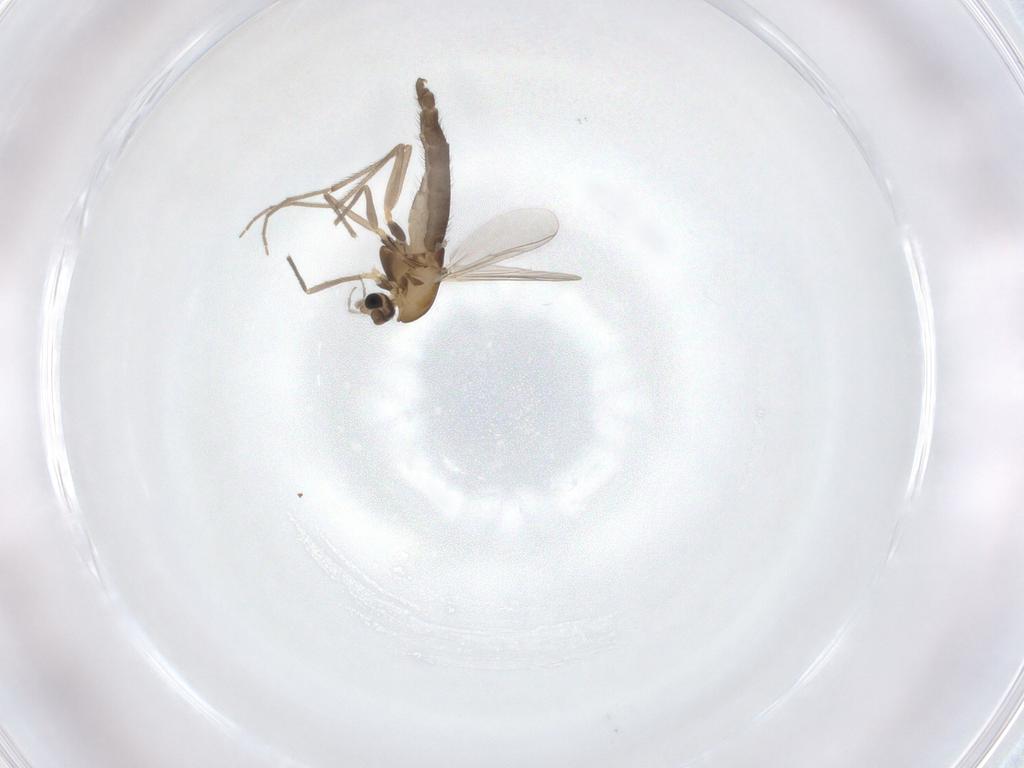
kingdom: Animalia
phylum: Arthropoda
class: Insecta
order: Diptera
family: Chironomidae
